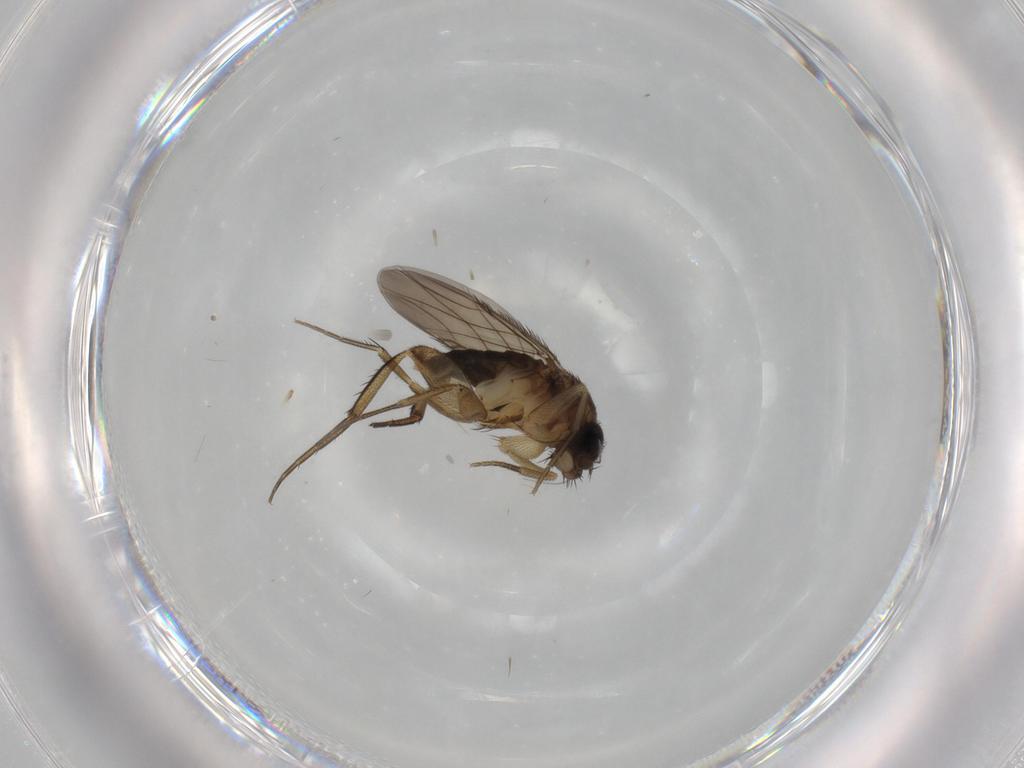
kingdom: Animalia
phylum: Arthropoda
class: Insecta
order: Diptera
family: Phoridae
